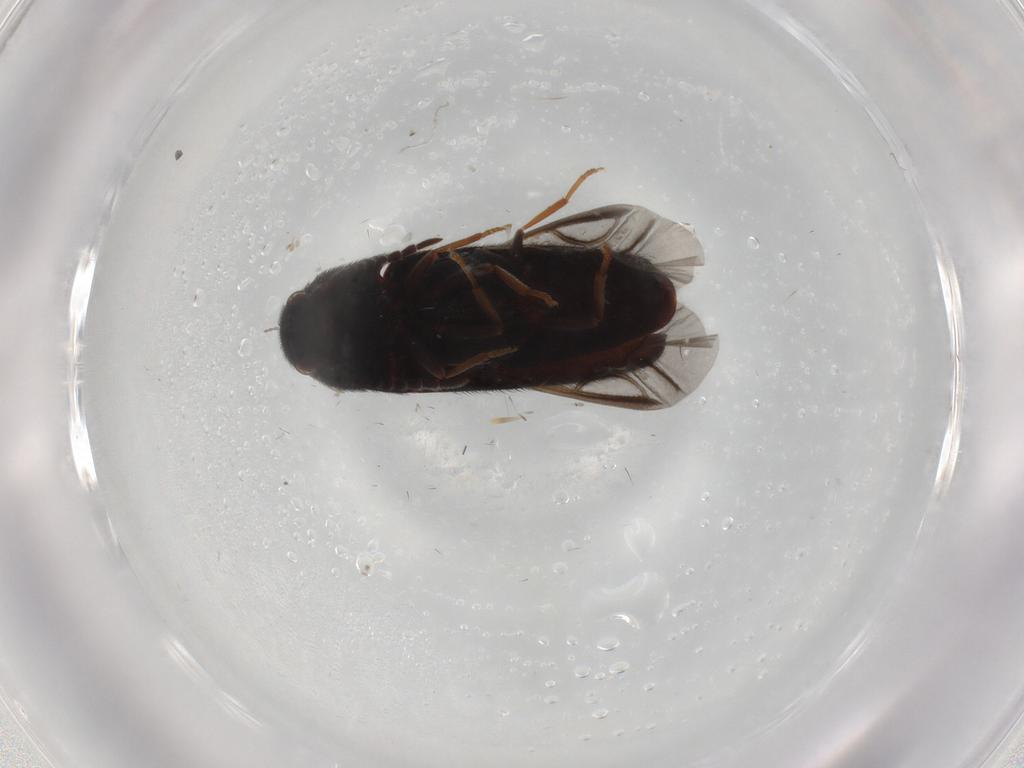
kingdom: Animalia
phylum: Arthropoda
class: Insecta
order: Coleoptera
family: Eucnemidae
